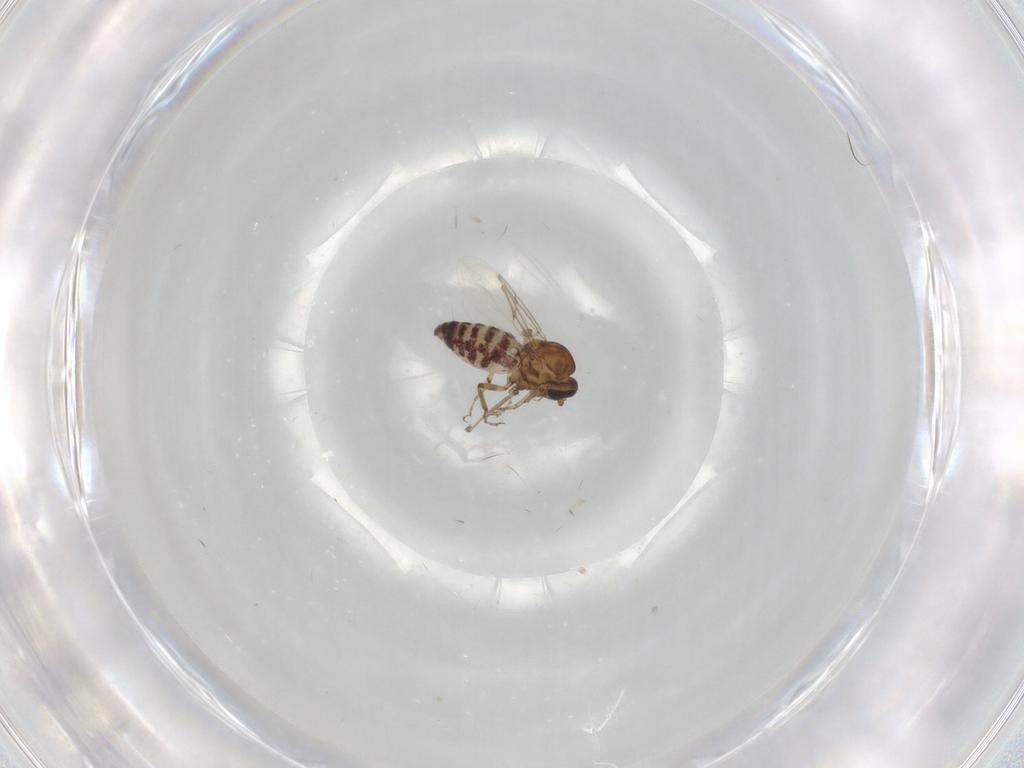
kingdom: Animalia
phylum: Arthropoda
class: Insecta
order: Diptera
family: Ceratopogonidae
